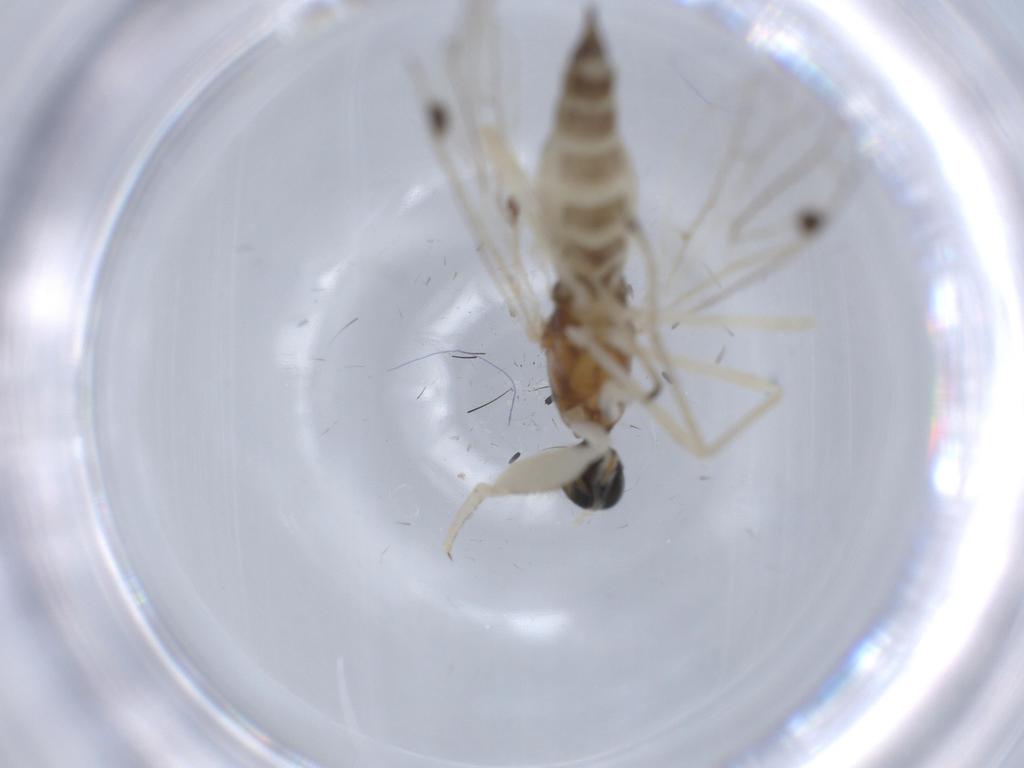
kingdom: Animalia
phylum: Arthropoda
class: Insecta
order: Diptera
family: Empididae
